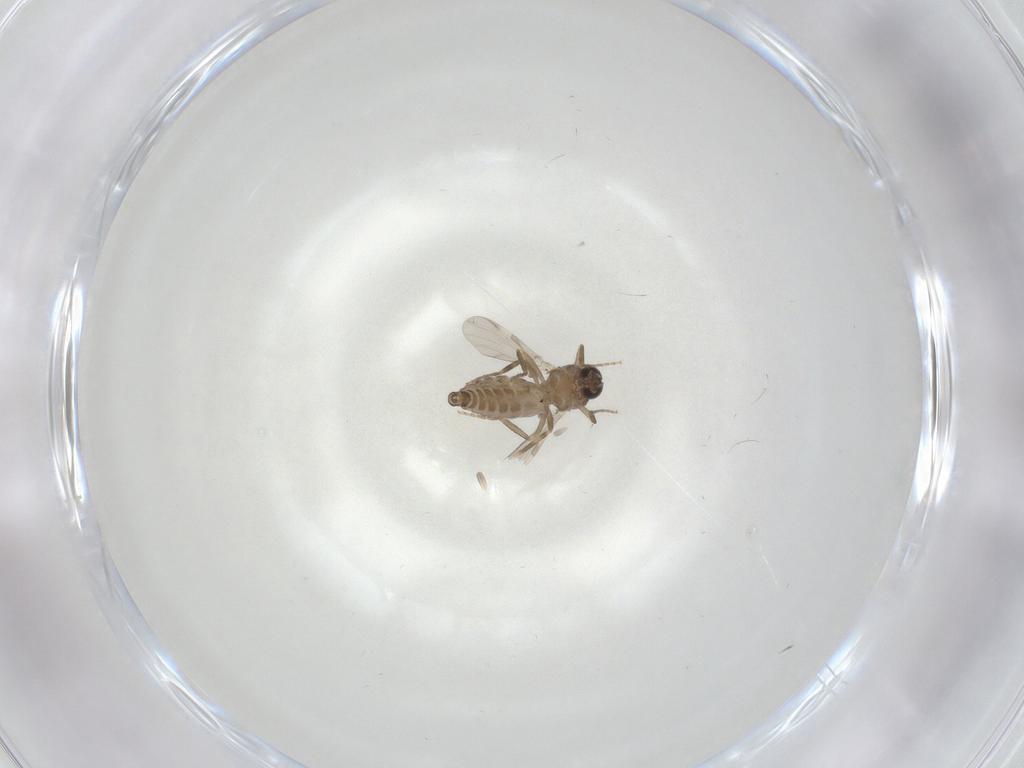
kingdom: Animalia
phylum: Arthropoda
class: Insecta
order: Diptera
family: Ceratopogonidae
